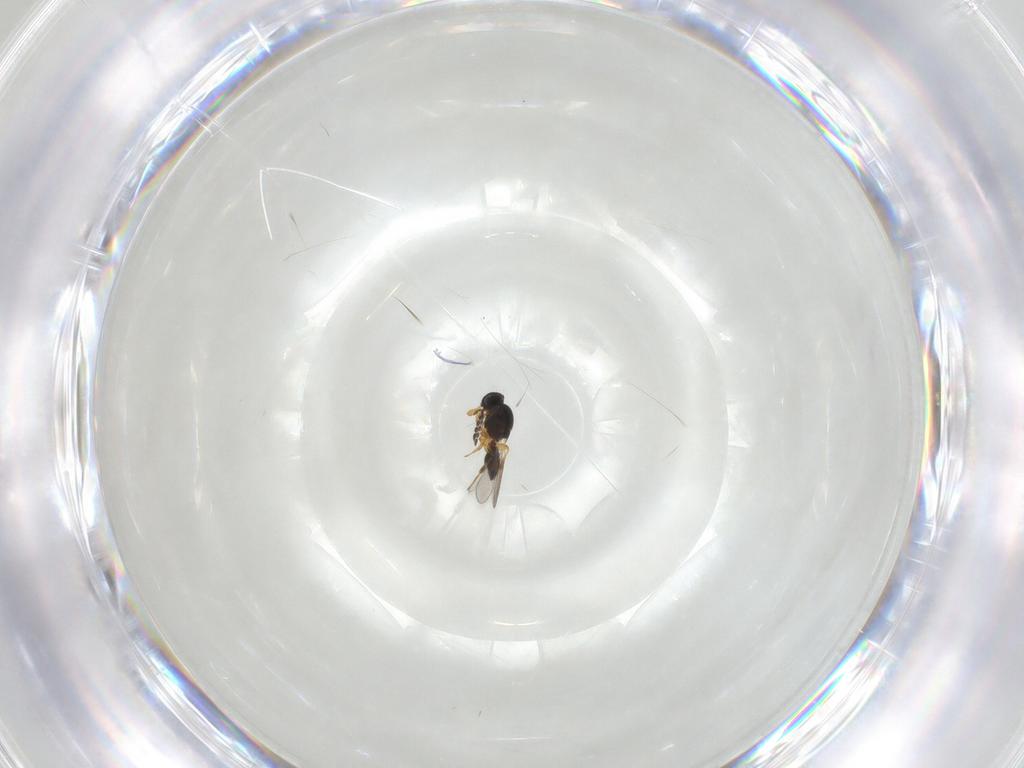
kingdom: Animalia
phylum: Arthropoda
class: Insecta
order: Hymenoptera
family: Platygastridae
